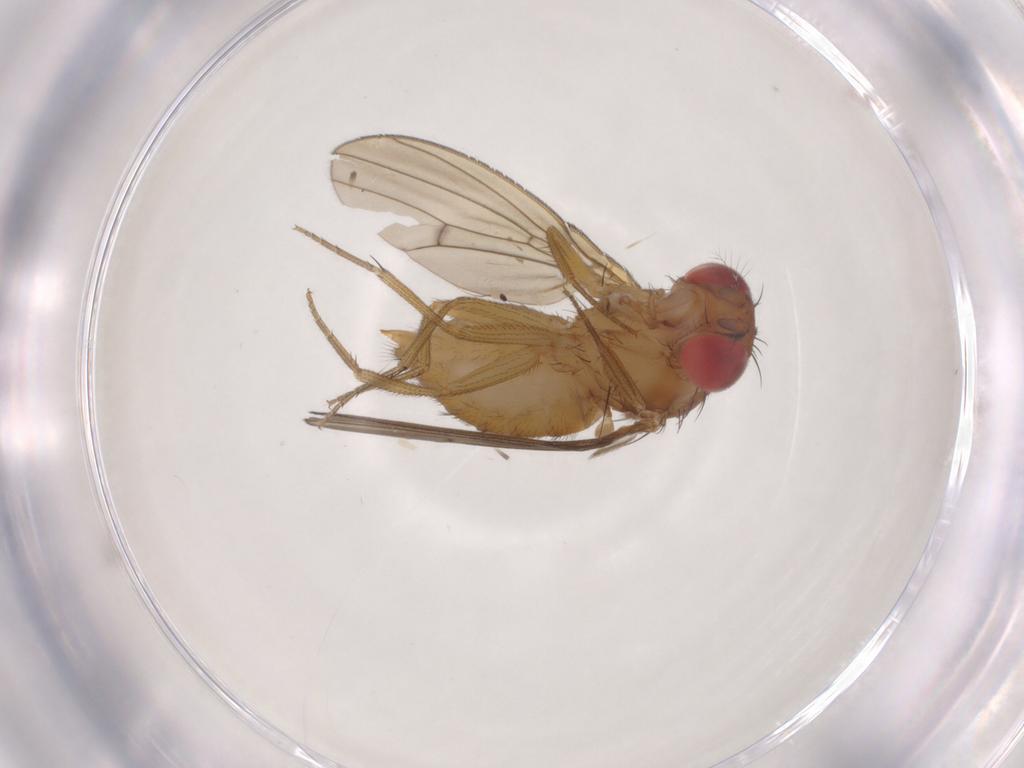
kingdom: Animalia
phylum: Arthropoda
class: Insecta
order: Diptera
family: Drosophilidae
